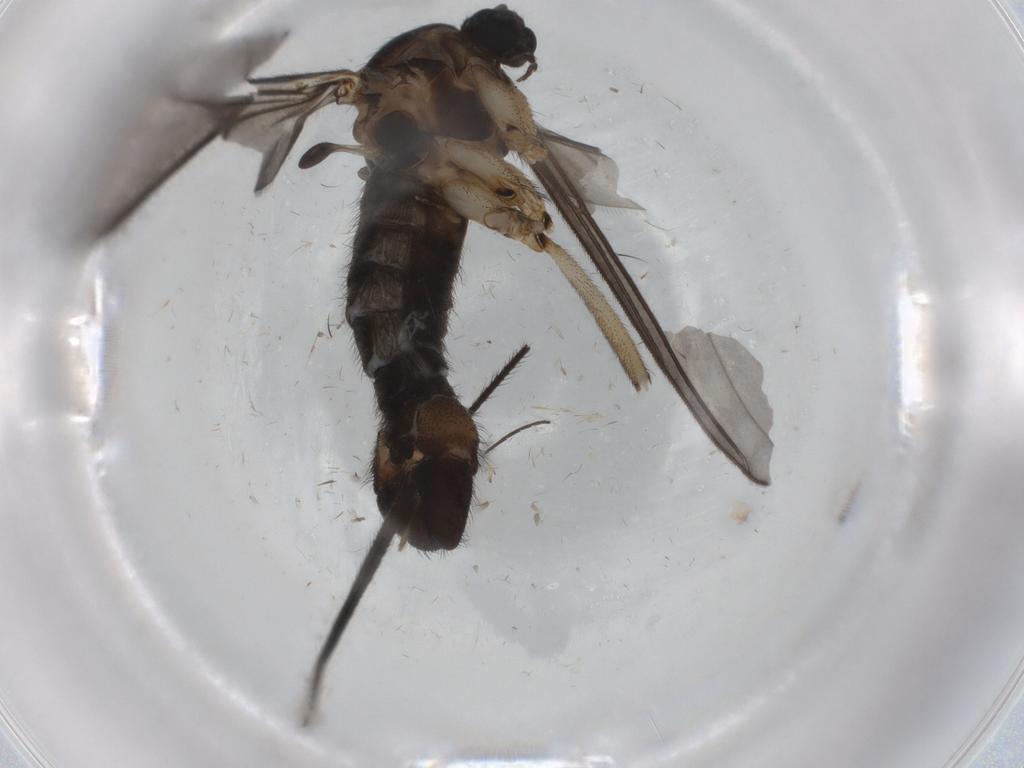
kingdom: Animalia
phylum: Arthropoda
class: Insecta
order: Diptera
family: Sciaridae
